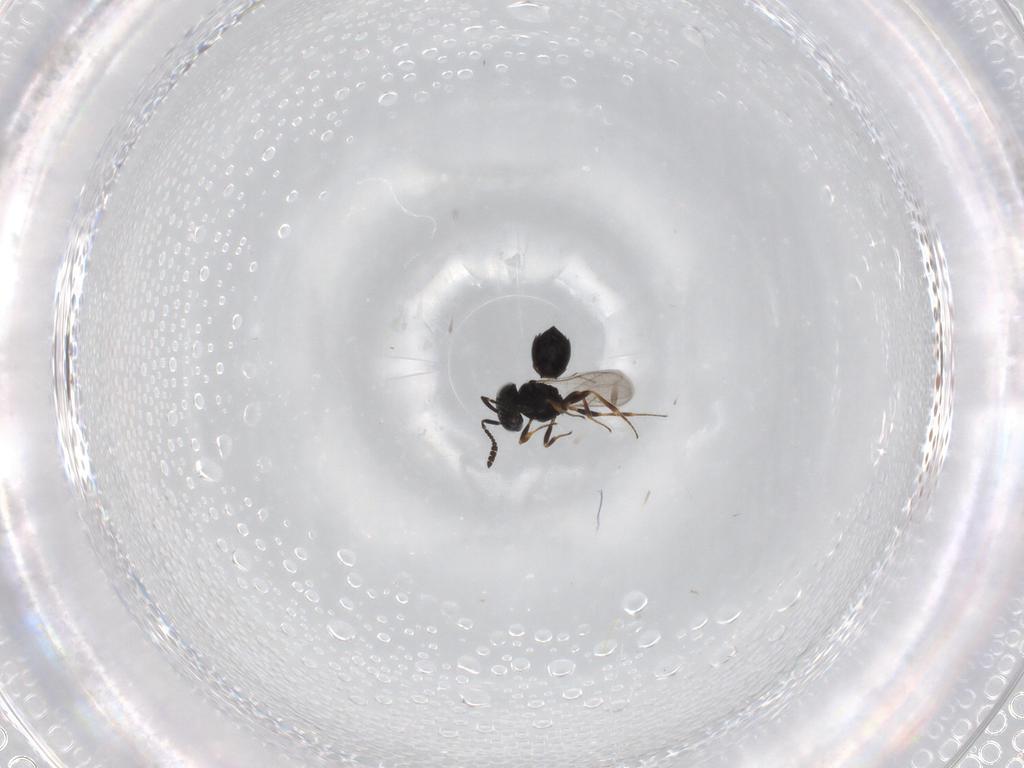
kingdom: Animalia
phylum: Arthropoda
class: Insecta
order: Hymenoptera
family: Scelionidae
